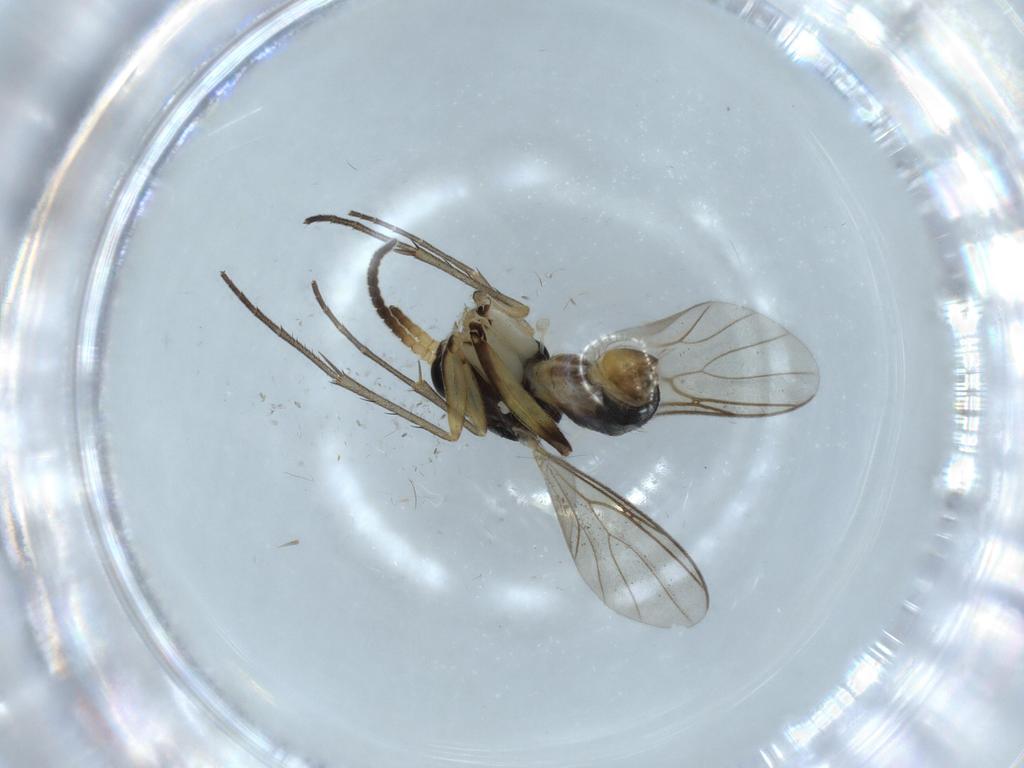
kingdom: Animalia
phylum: Arthropoda
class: Insecta
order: Diptera
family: Chironomidae
